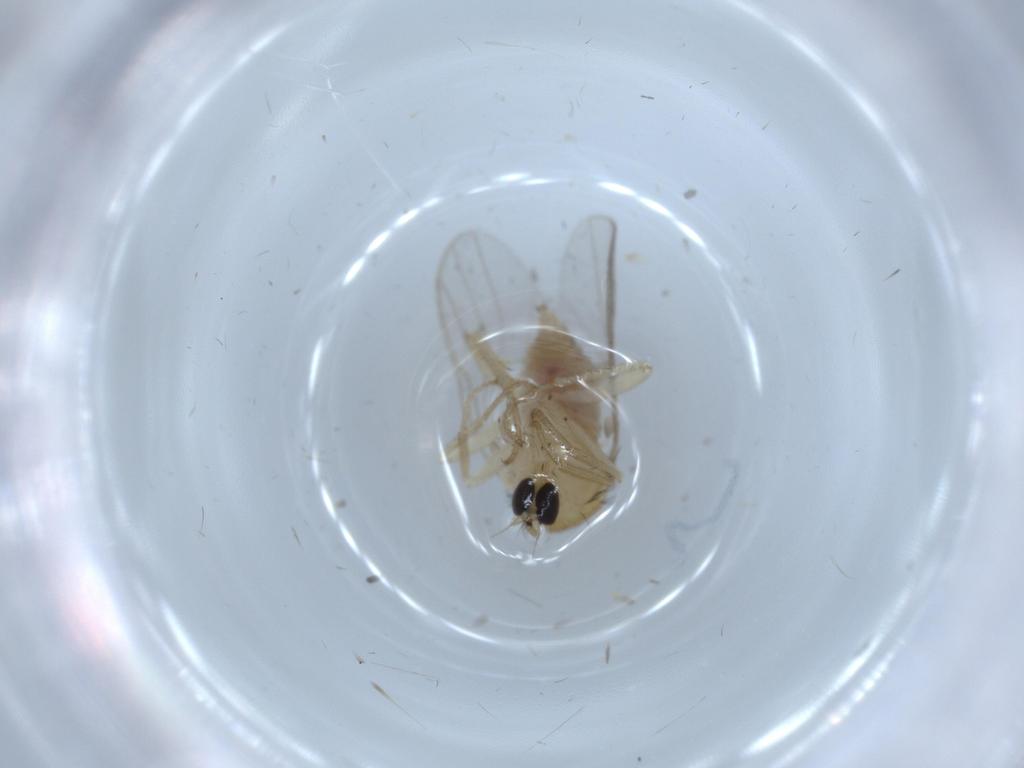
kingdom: Animalia
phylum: Arthropoda
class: Insecta
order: Diptera
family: Hybotidae
